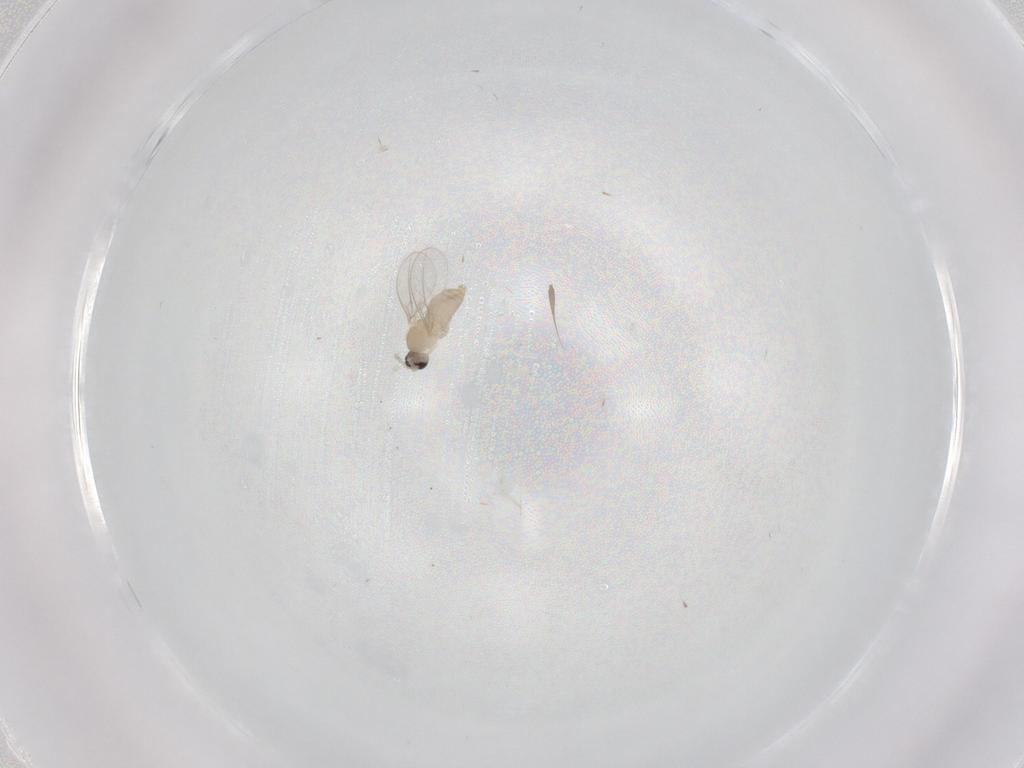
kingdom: Animalia
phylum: Arthropoda
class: Insecta
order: Diptera
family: Cecidomyiidae
